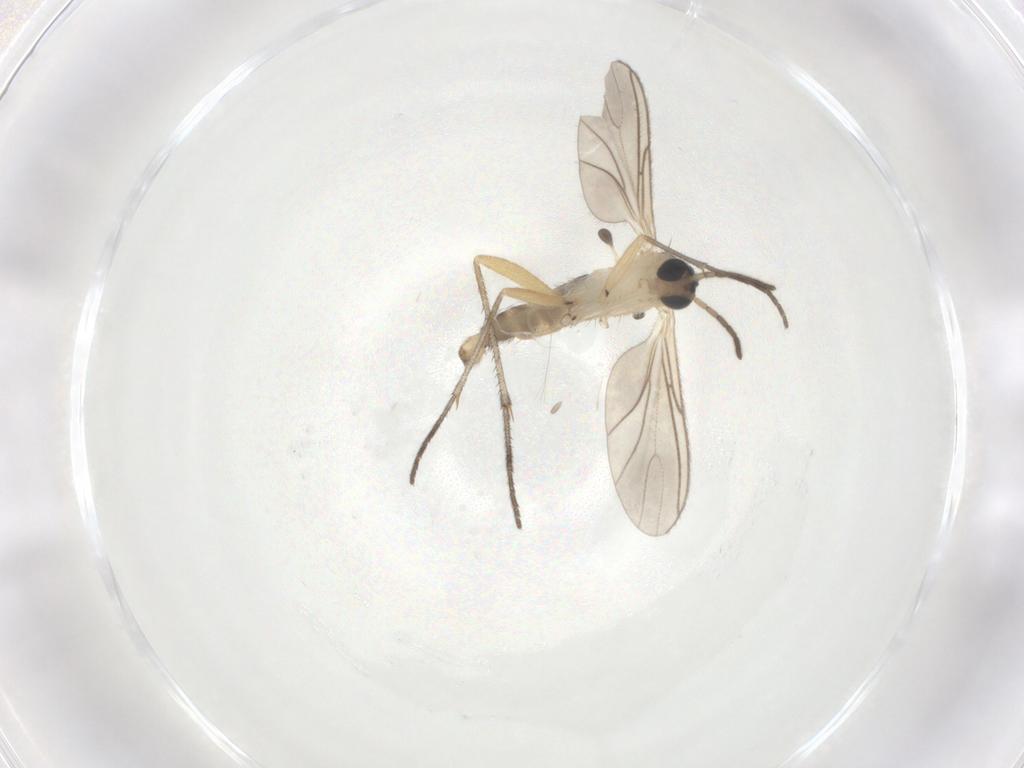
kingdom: Animalia
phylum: Arthropoda
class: Insecta
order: Diptera
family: Sciaridae
